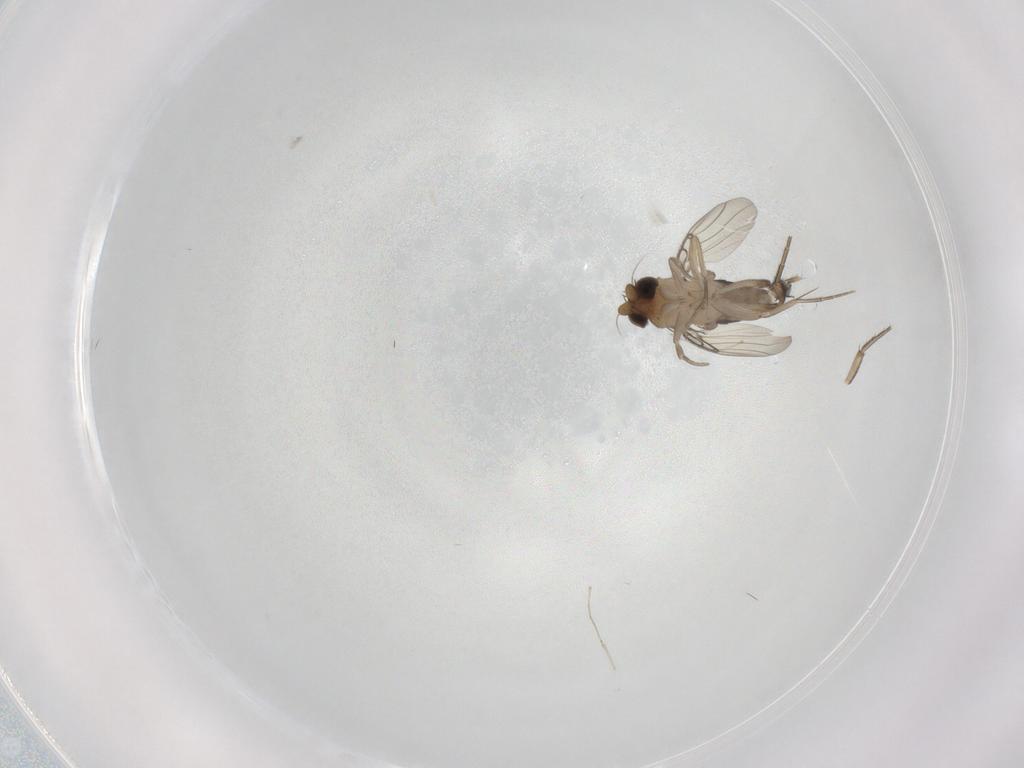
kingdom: Animalia
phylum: Arthropoda
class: Insecta
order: Diptera
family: Phoridae
